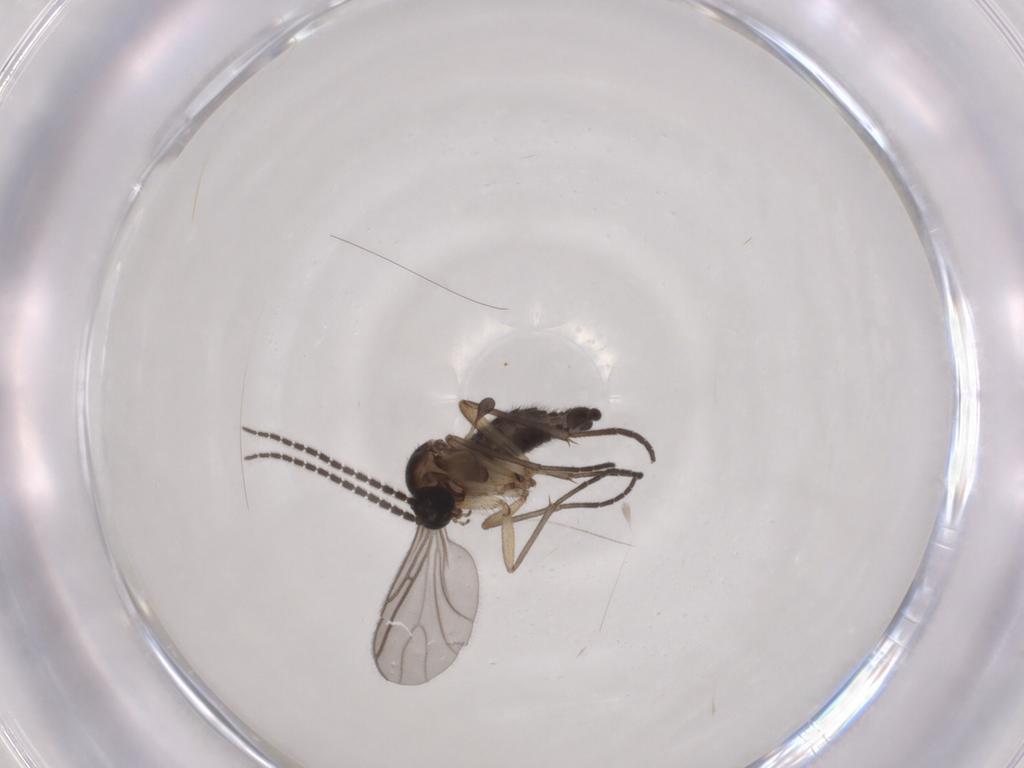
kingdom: Animalia
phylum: Arthropoda
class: Insecta
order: Diptera
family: Sciaridae
